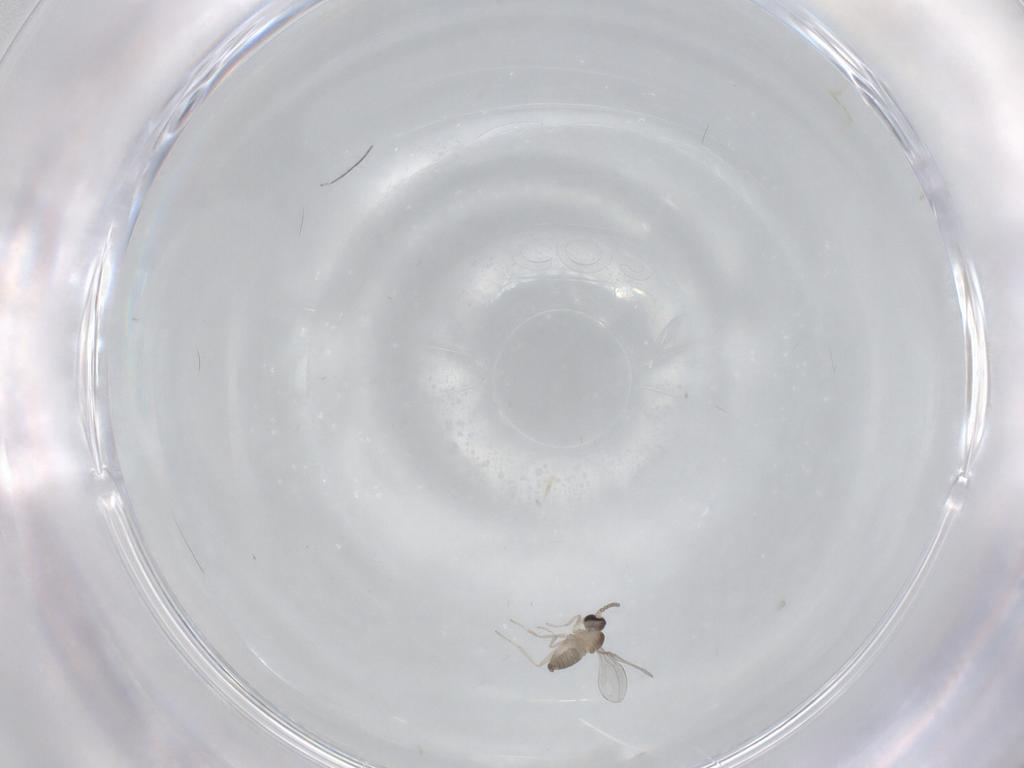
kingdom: Animalia
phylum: Arthropoda
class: Insecta
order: Diptera
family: Cecidomyiidae
